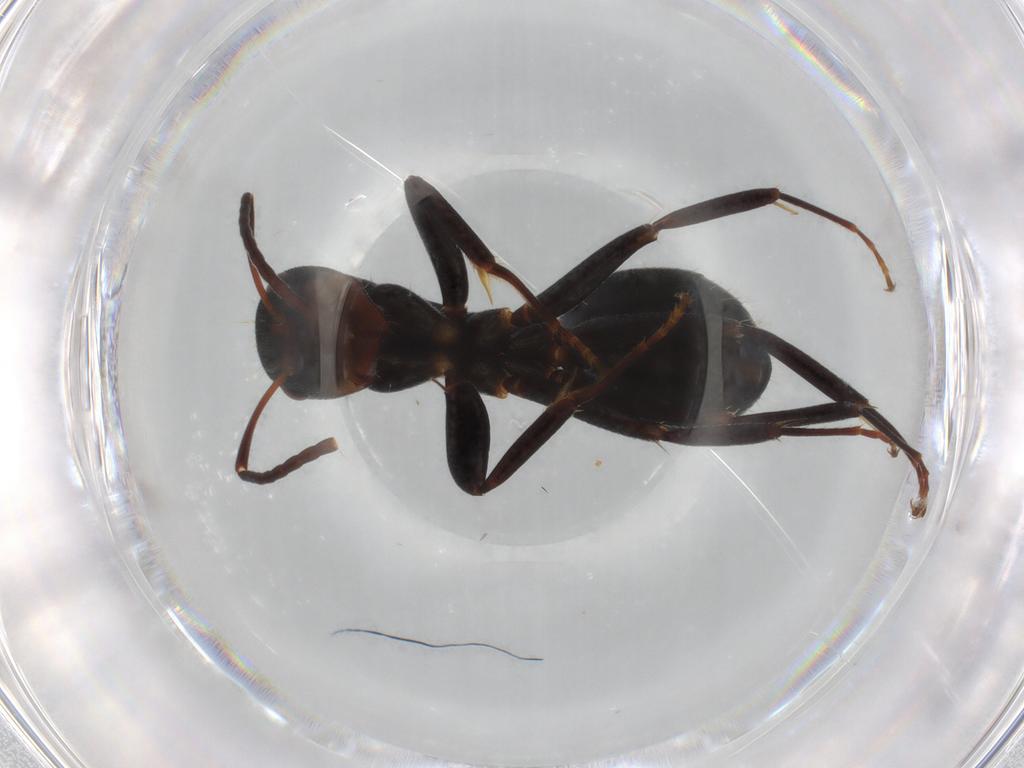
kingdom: Animalia
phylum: Arthropoda
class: Insecta
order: Hymenoptera
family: Formicidae
